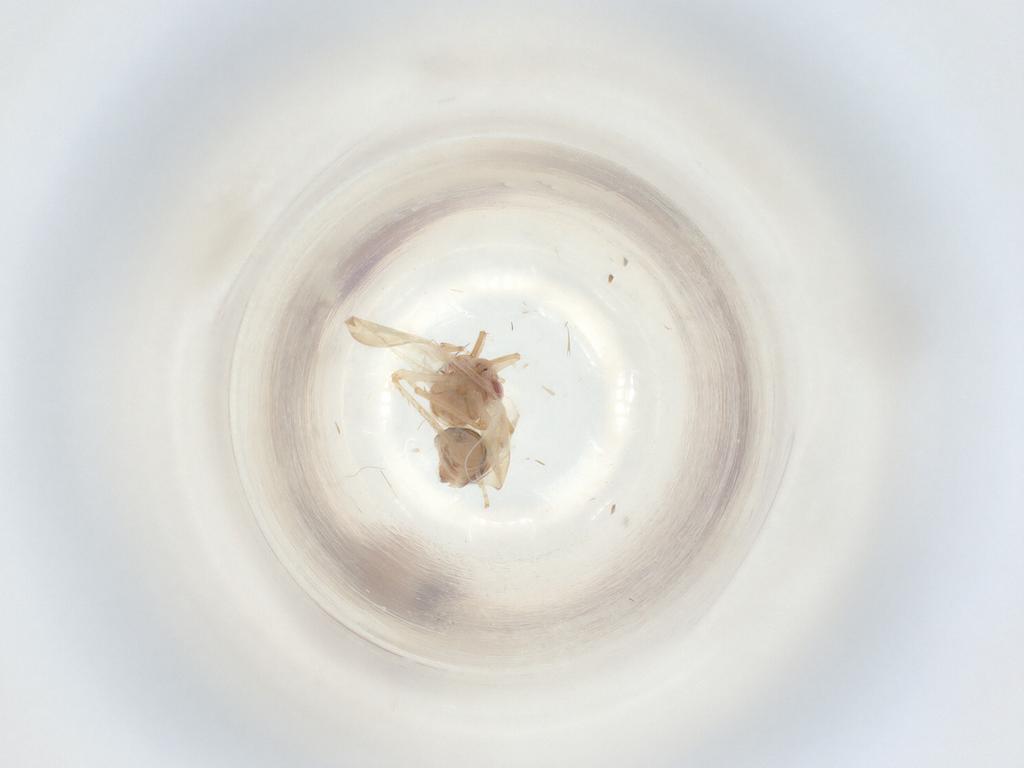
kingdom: Animalia
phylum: Arthropoda
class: Insecta
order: Hemiptera
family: Cicadellidae
